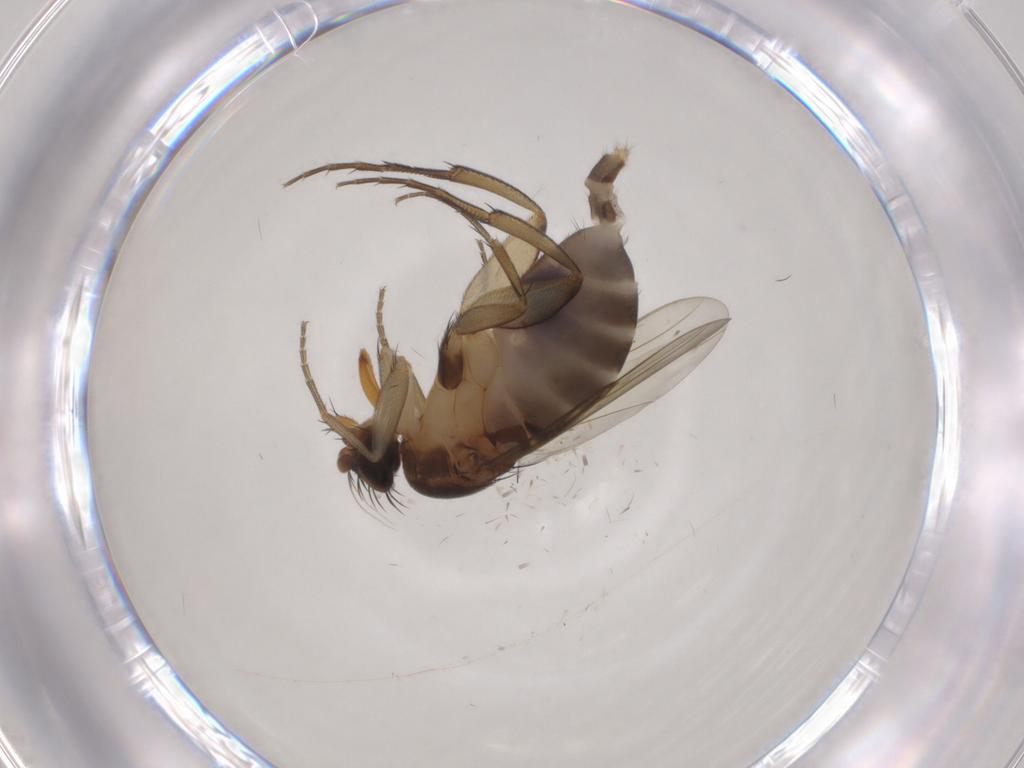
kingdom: Animalia
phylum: Arthropoda
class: Insecta
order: Diptera
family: Phoridae
